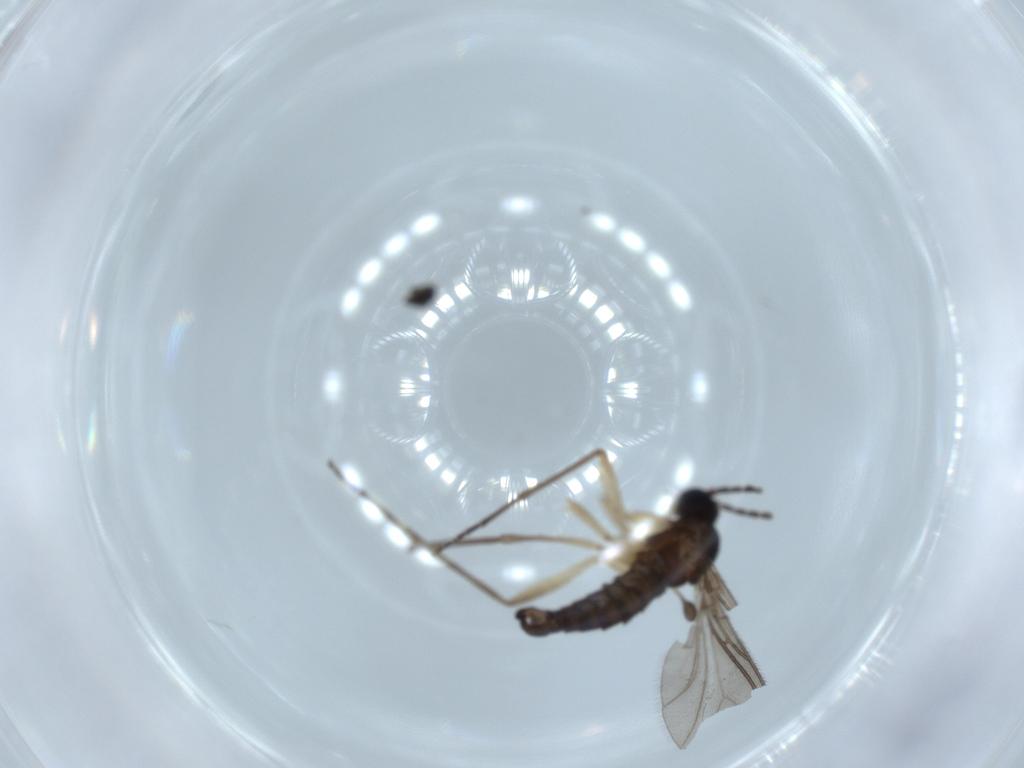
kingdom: Animalia
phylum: Arthropoda
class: Insecta
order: Diptera
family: Sciaridae
